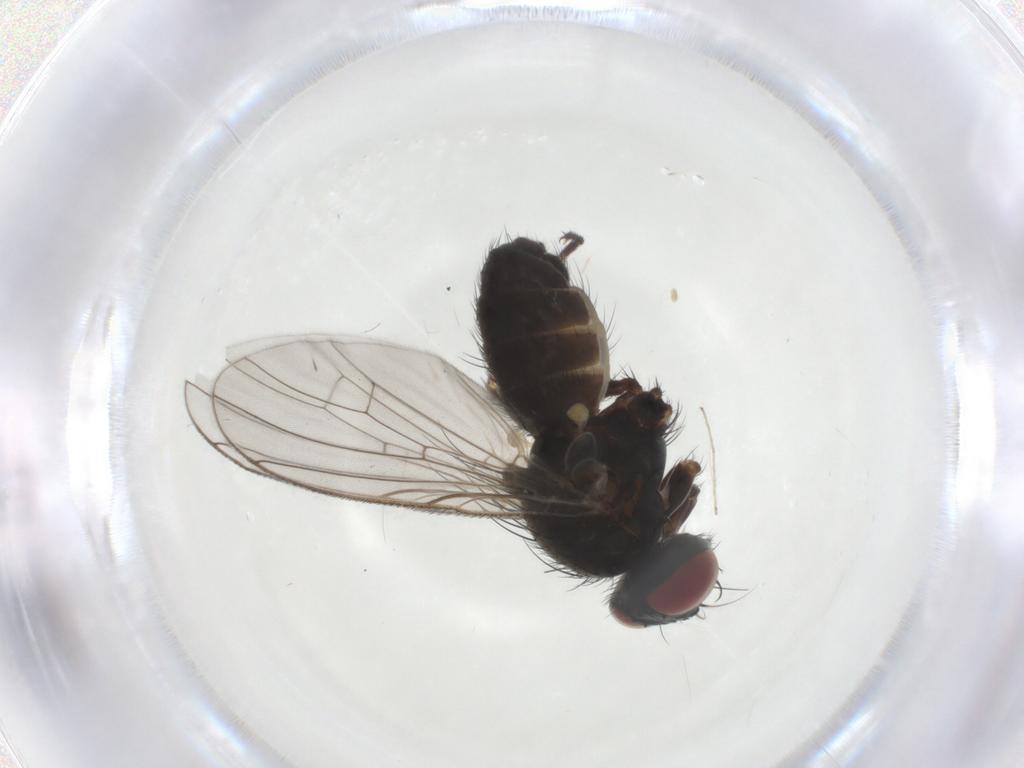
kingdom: Animalia
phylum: Arthropoda
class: Insecta
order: Diptera
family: Muscidae
